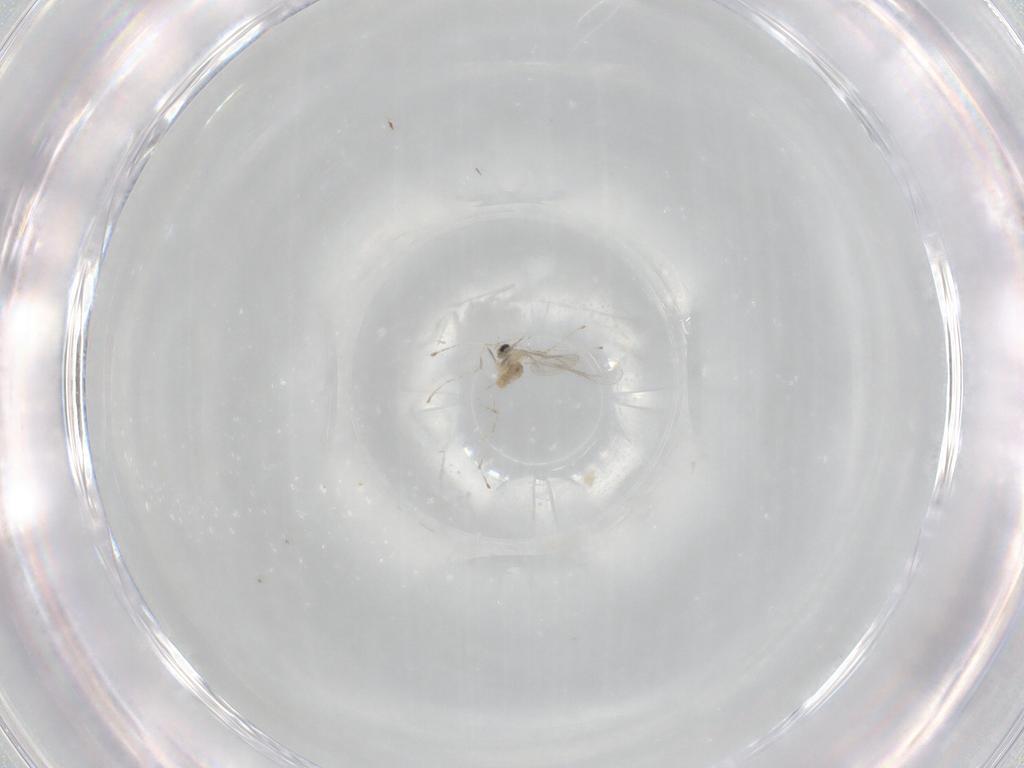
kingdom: Animalia
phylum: Arthropoda
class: Insecta
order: Diptera
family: Cecidomyiidae
